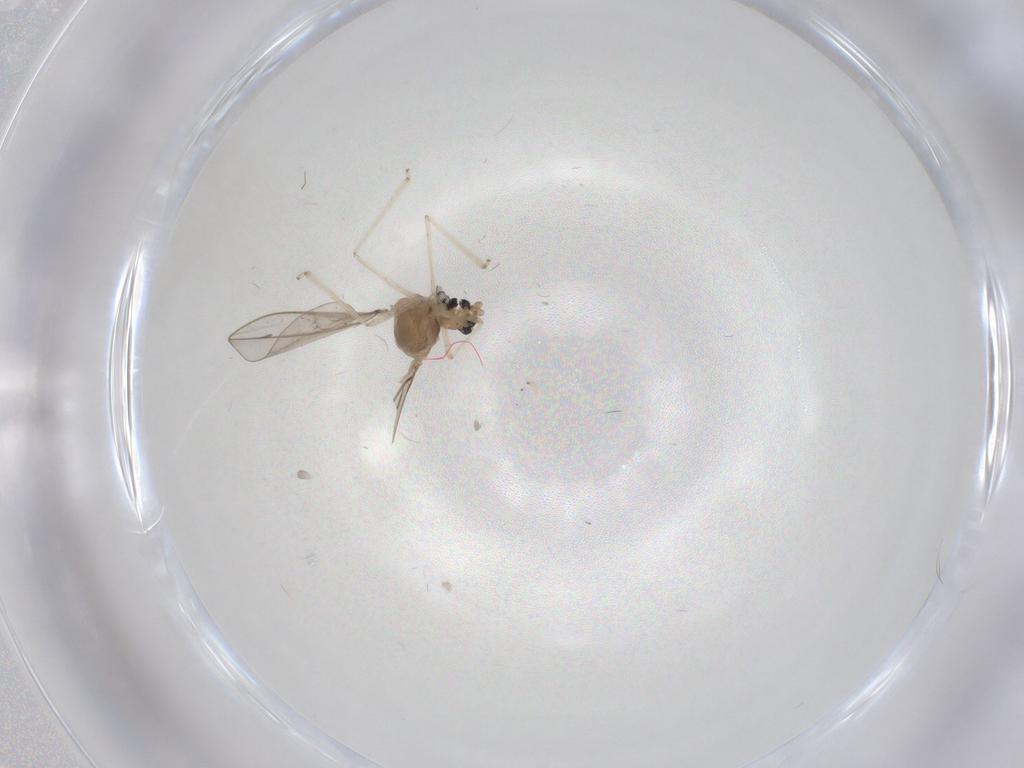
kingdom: Animalia
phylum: Arthropoda
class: Insecta
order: Diptera
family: Cecidomyiidae
